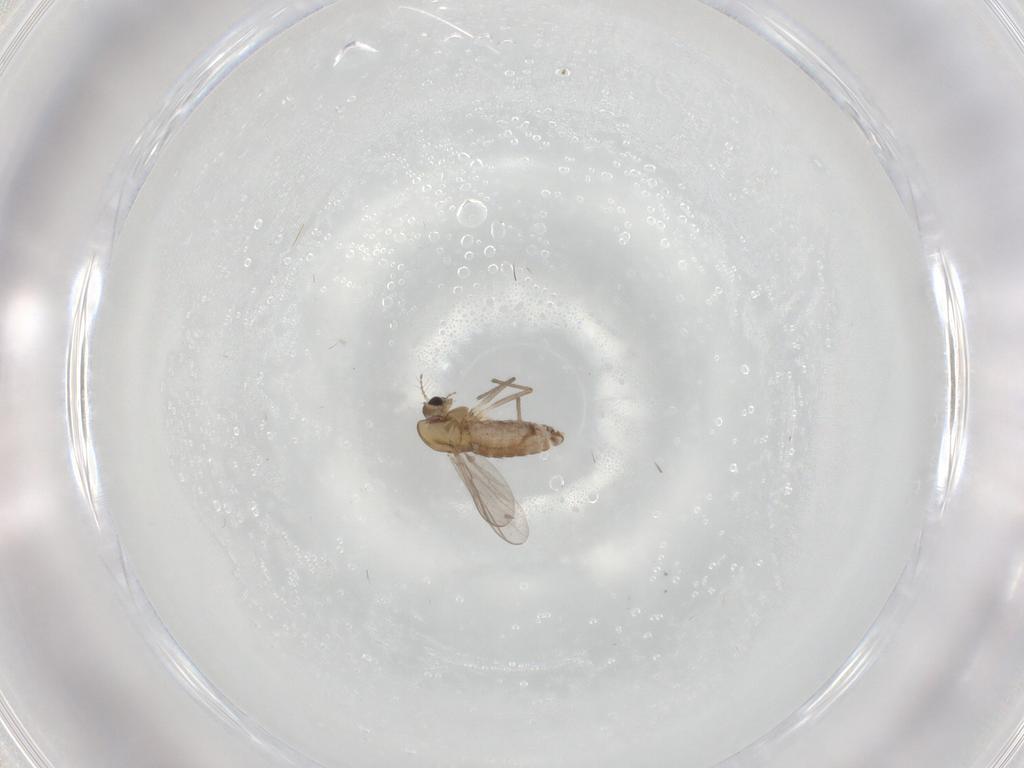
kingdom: Animalia
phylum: Arthropoda
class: Insecta
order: Diptera
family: Chironomidae
